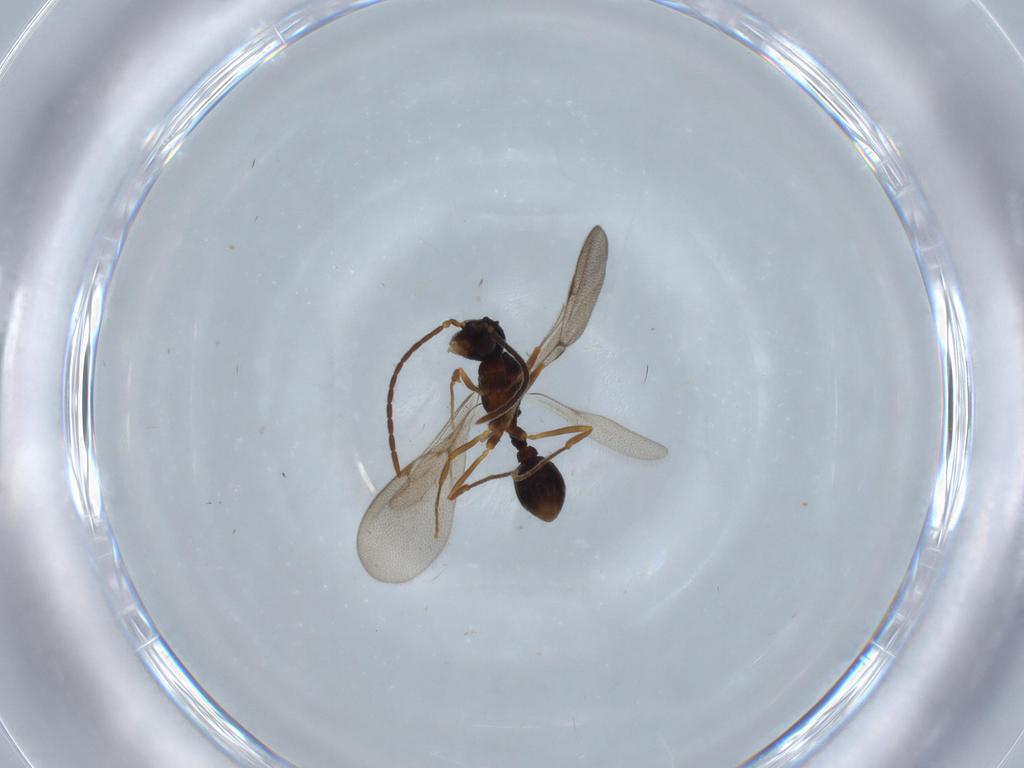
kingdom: Animalia
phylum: Arthropoda
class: Insecta
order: Hymenoptera
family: Formicidae
